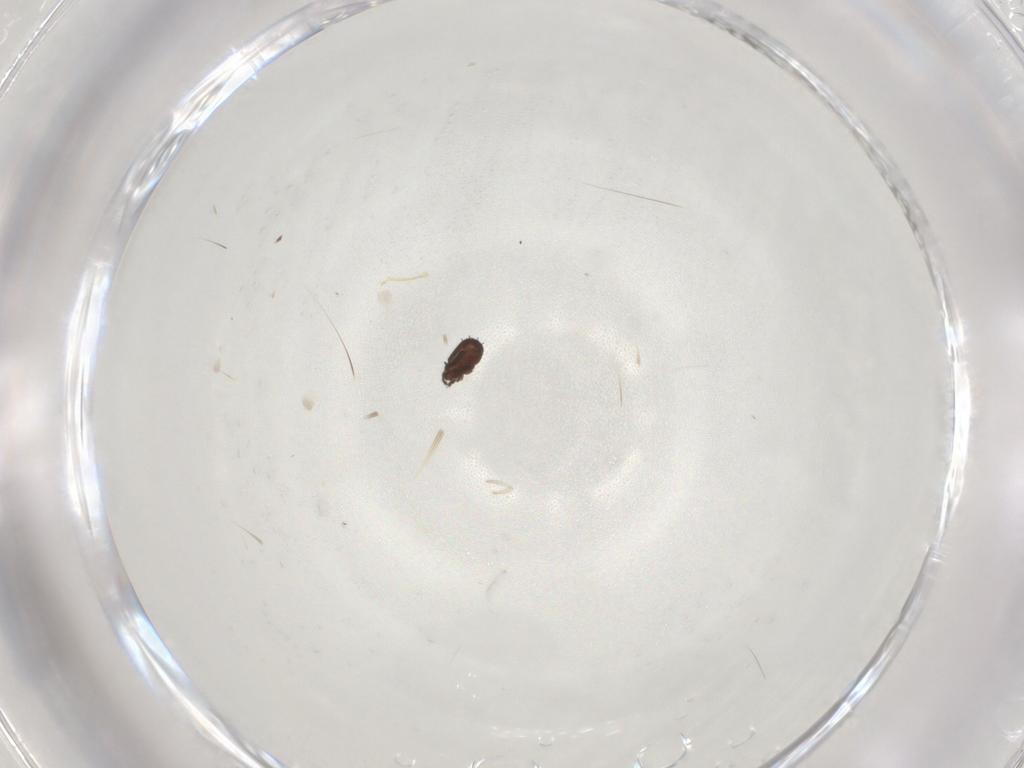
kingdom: Animalia
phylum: Arthropoda
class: Arachnida
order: Sarcoptiformes
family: Cymbaeremaeidae
